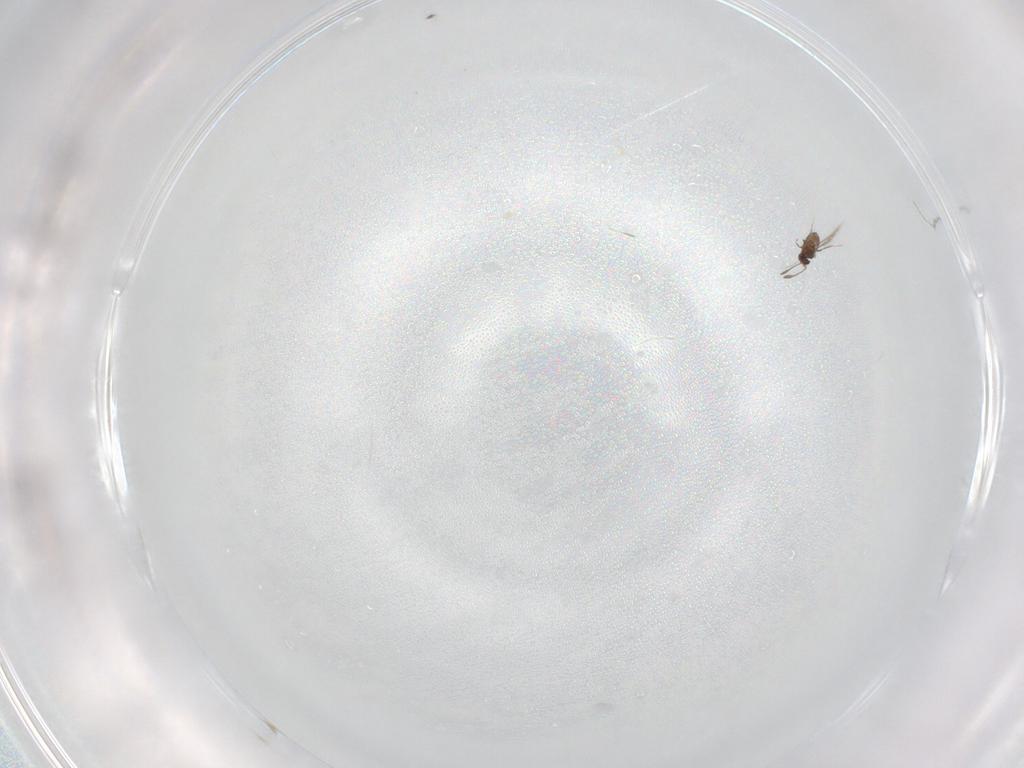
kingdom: Animalia
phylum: Arthropoda
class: Insecta
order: Hymenoptera
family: Mymaridae
